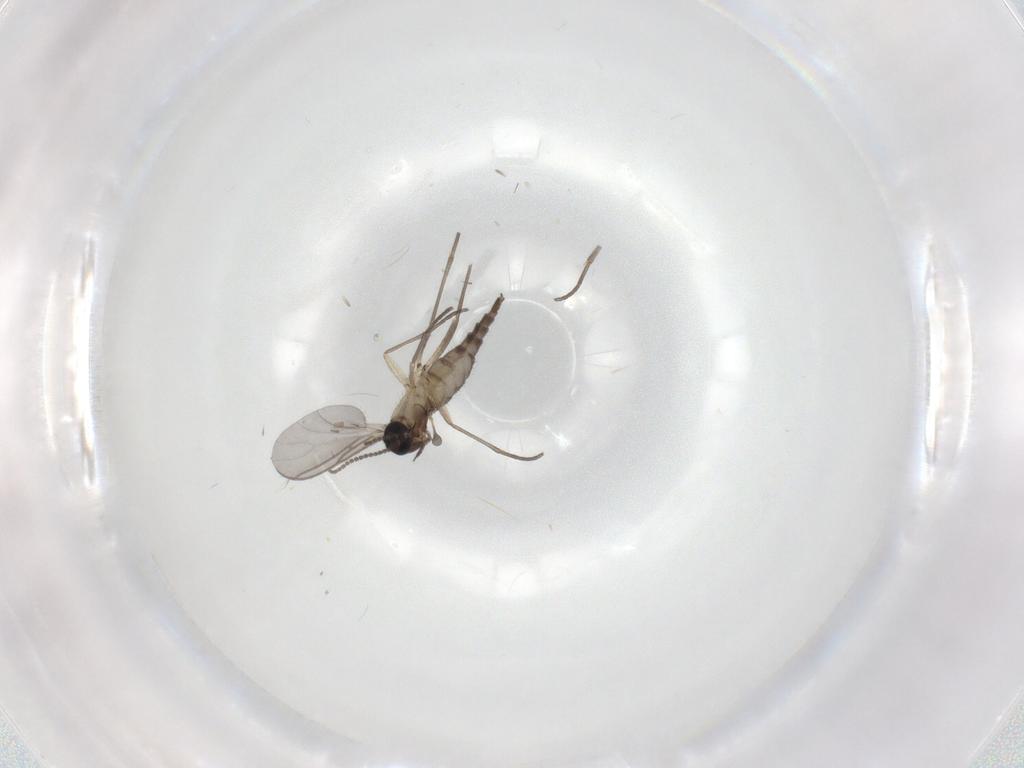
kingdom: Animalia
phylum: Arthropoda
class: Insecta
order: Diptera
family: Sciaridae
